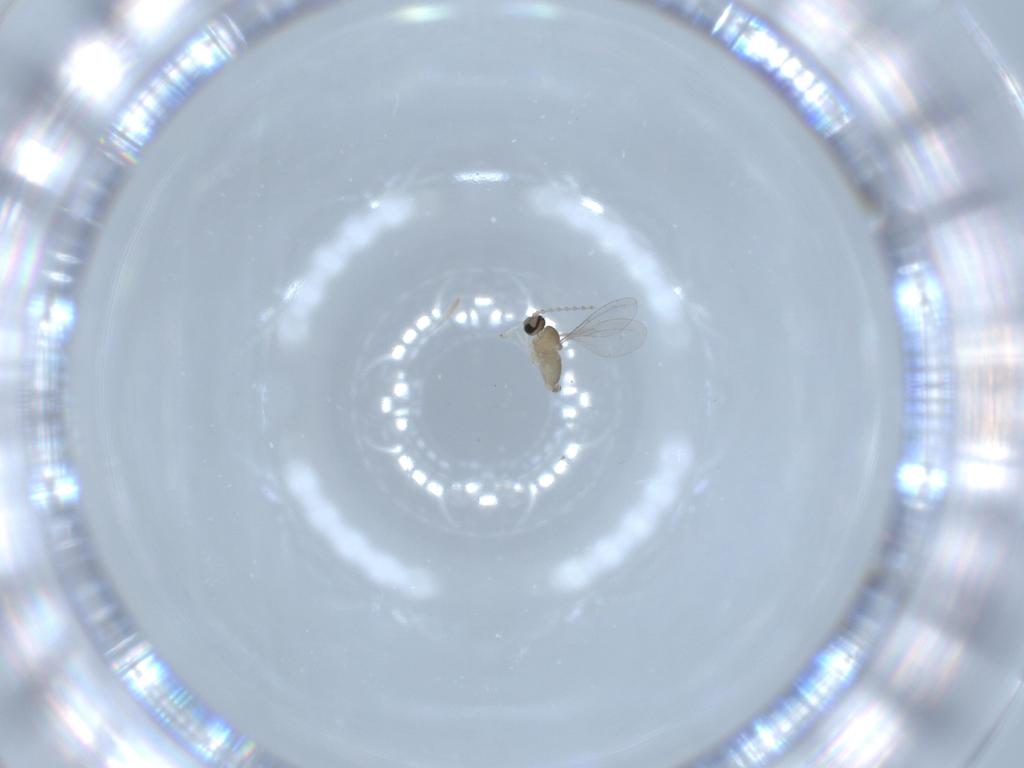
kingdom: Animalia
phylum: Arthropoda
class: Insecta
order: Diptera
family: Cecidomyiidae
